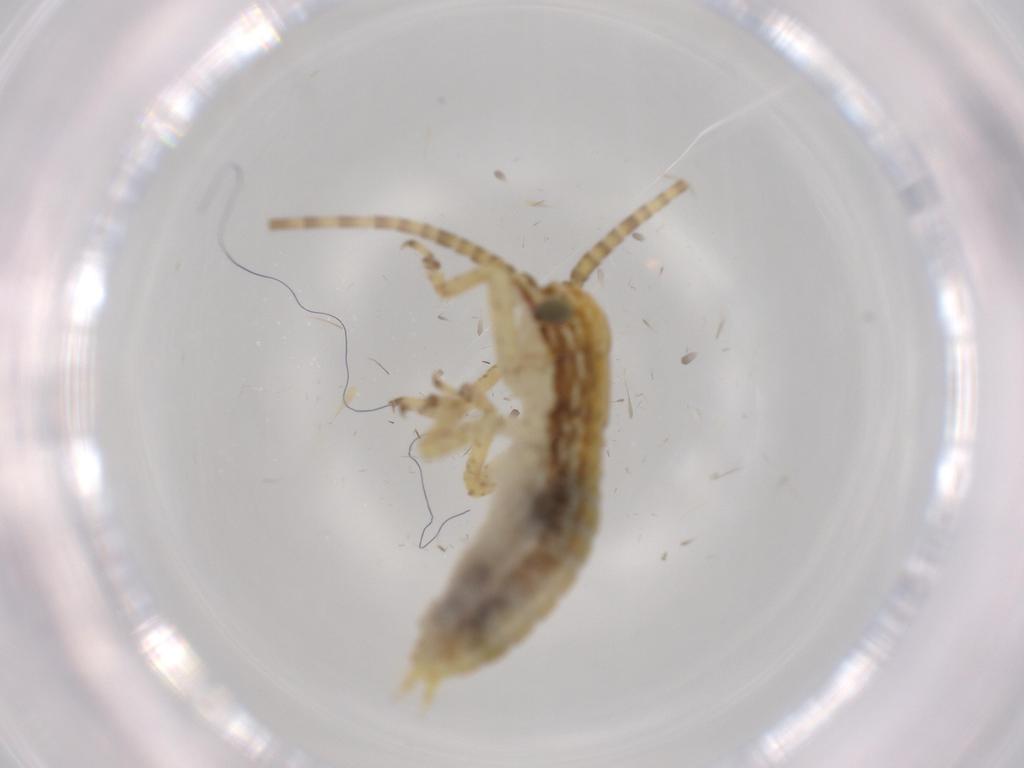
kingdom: Animalia
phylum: Arthropoda
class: Insecta
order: Orthoptera
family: Gryllidae
